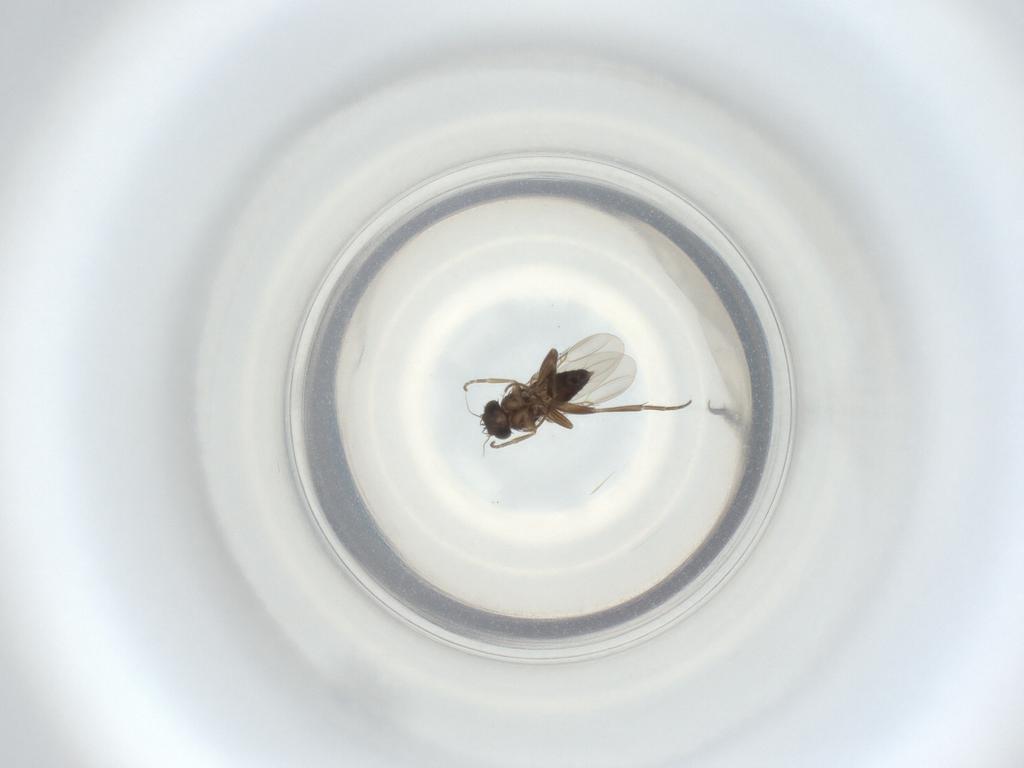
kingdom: Animalia
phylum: Arthropoda
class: Insecta
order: Diptera
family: Phoridae
